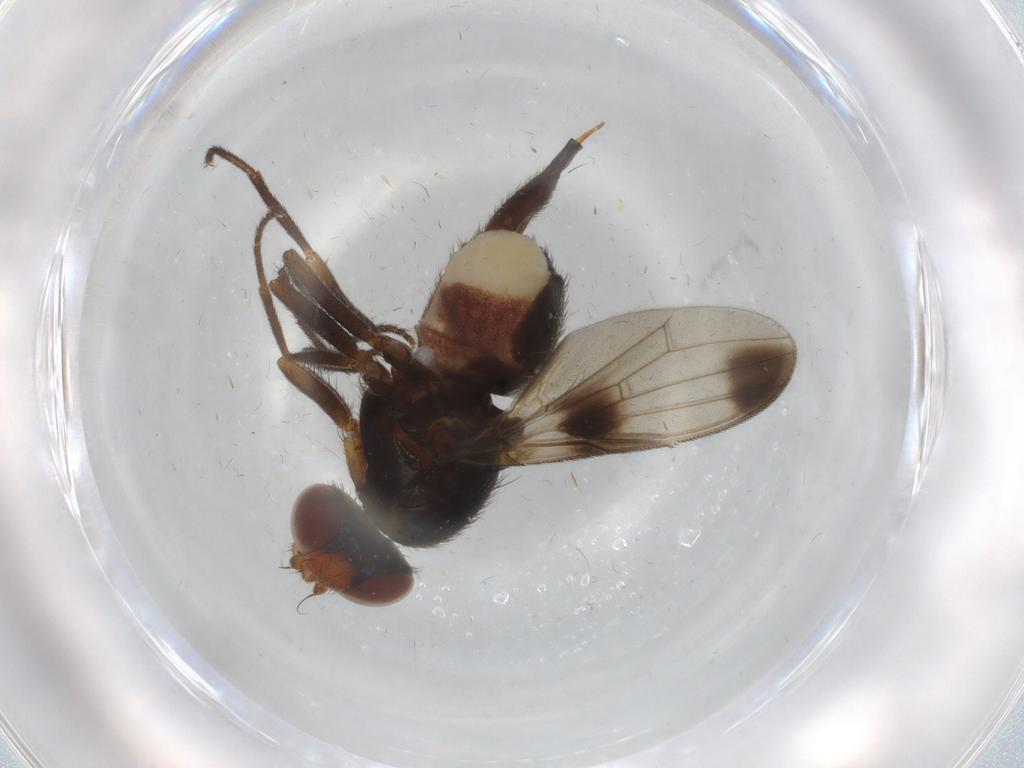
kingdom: Animalia
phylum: Arthropoda
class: Insecta
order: Diptera
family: Ulidiidae
